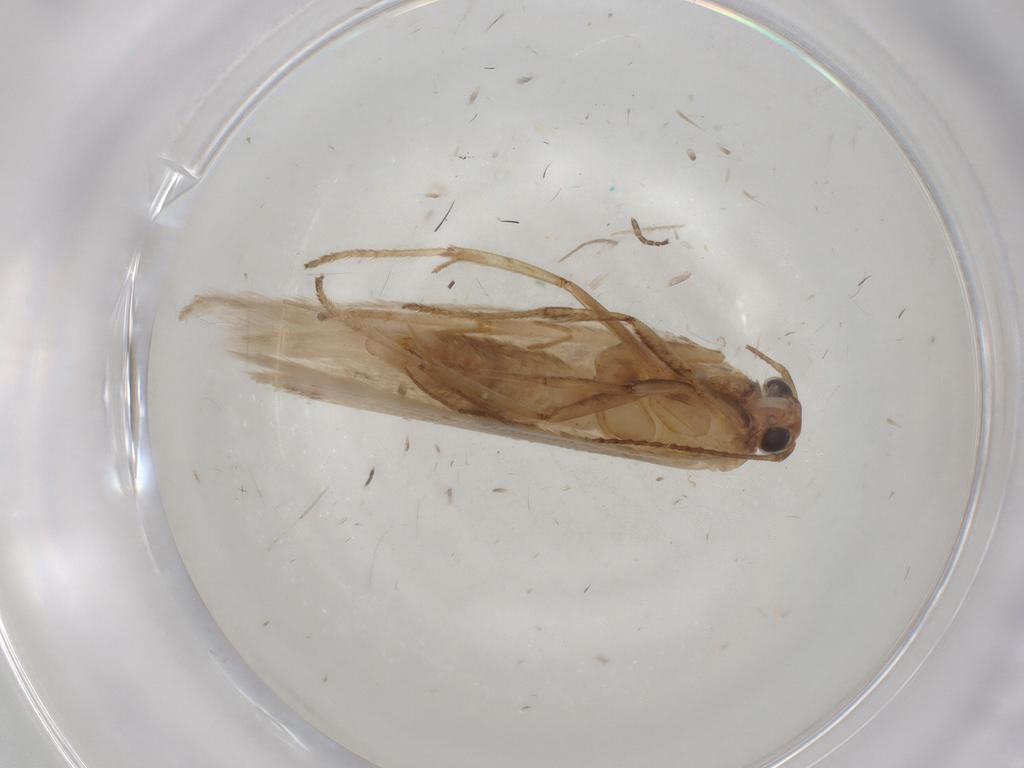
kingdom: Animalia
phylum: Arthropoda
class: Insecta
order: Lepidoptera
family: Gelechiidae
